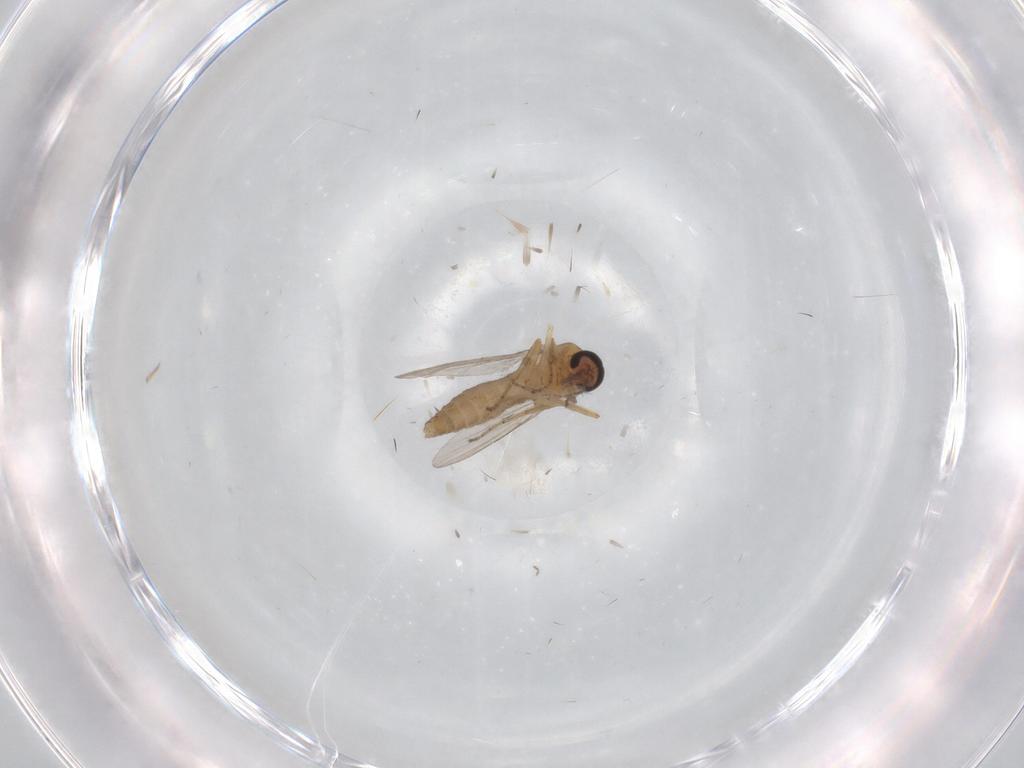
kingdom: Animalia
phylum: Arthropoda
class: Insecta
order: Diptera
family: Ceratopogonidae
